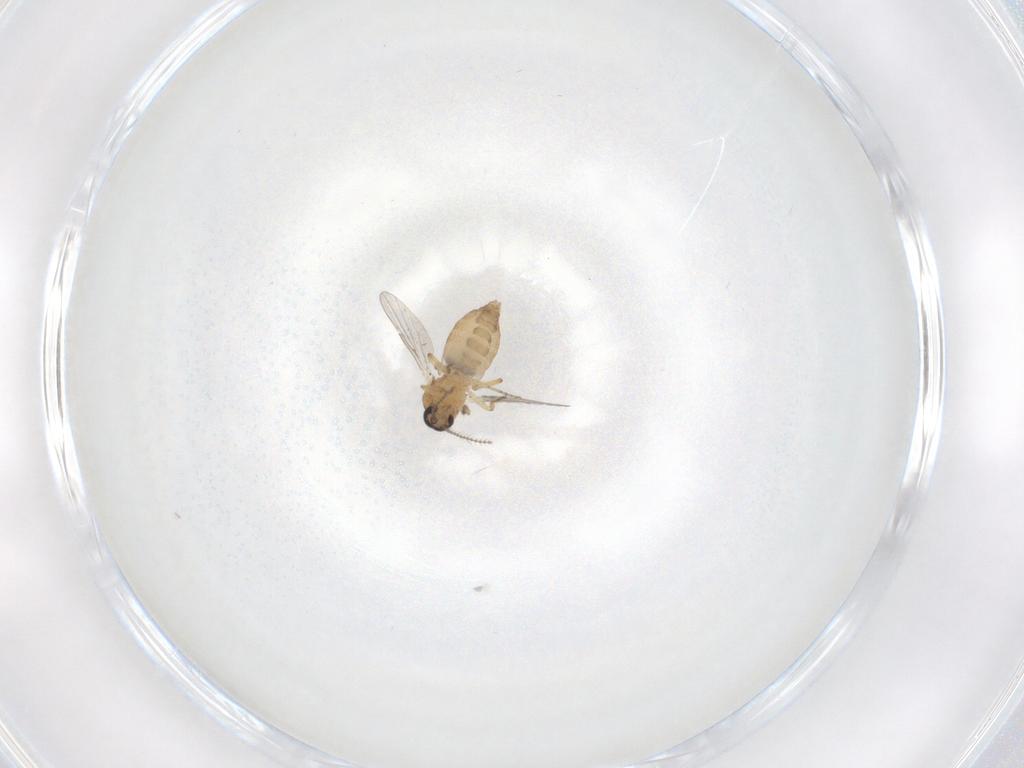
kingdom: Animalia
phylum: Arthropoda
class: Insecta
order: Diptera
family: Ceratopogonidae
